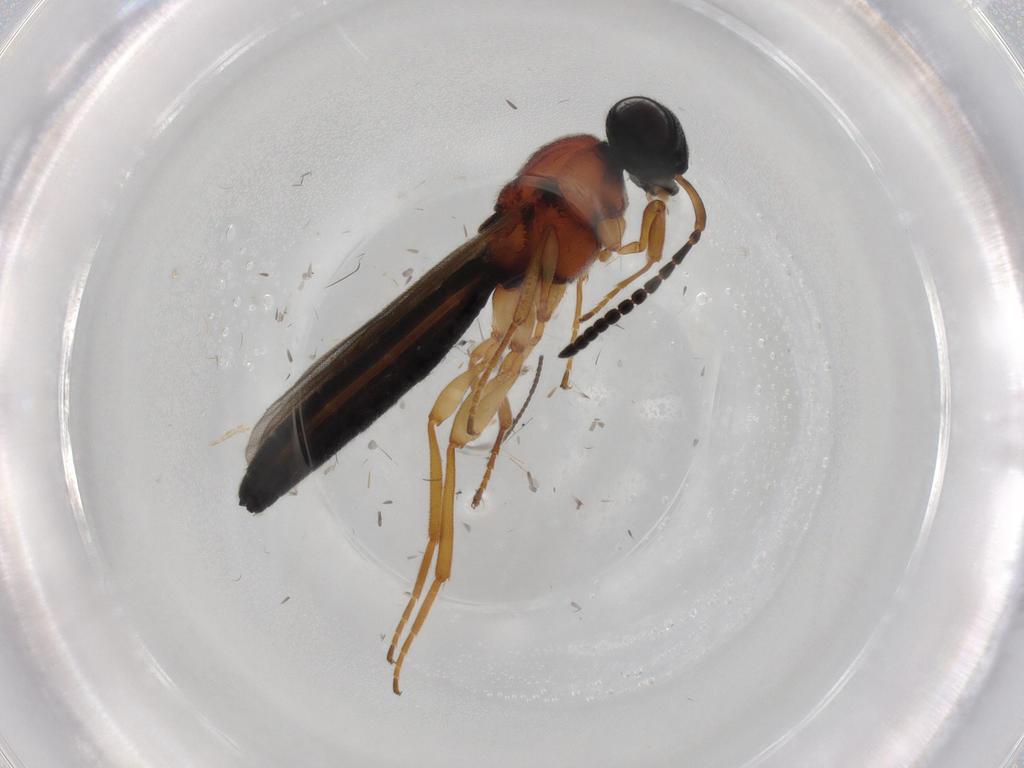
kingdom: Animalia
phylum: Arthropoda
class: Insecta
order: Hymenoptera
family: Scelionidae
